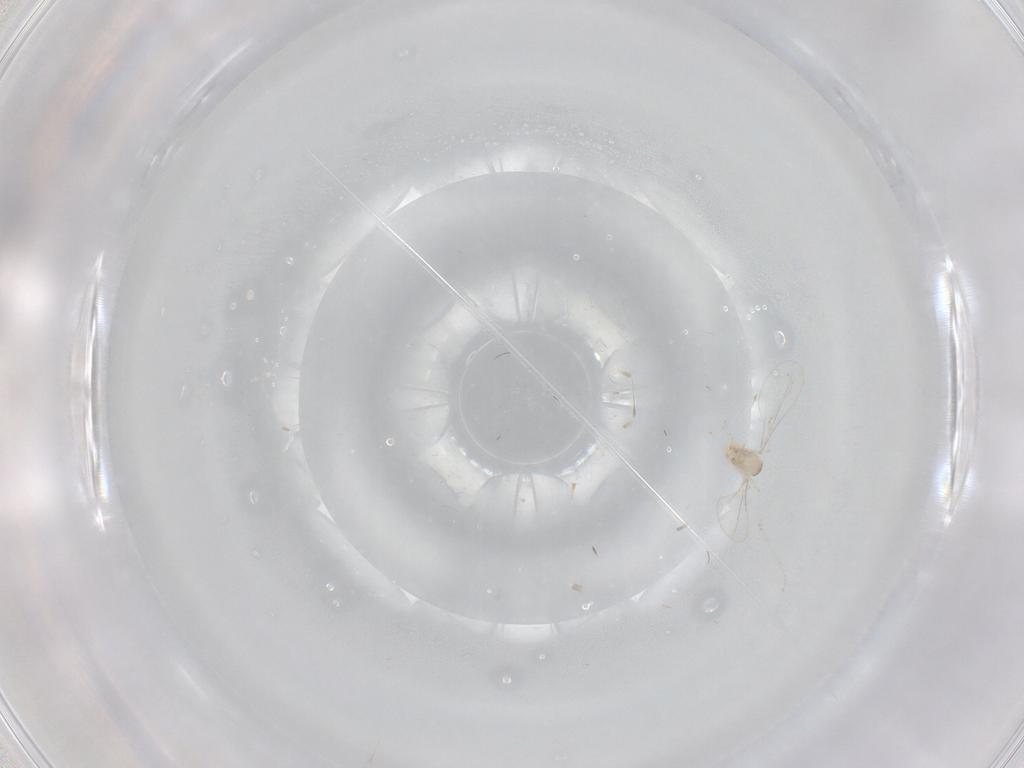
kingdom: Animalia
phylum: Arthropoda
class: Insecta
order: Diptera
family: Cecidomyiidae
